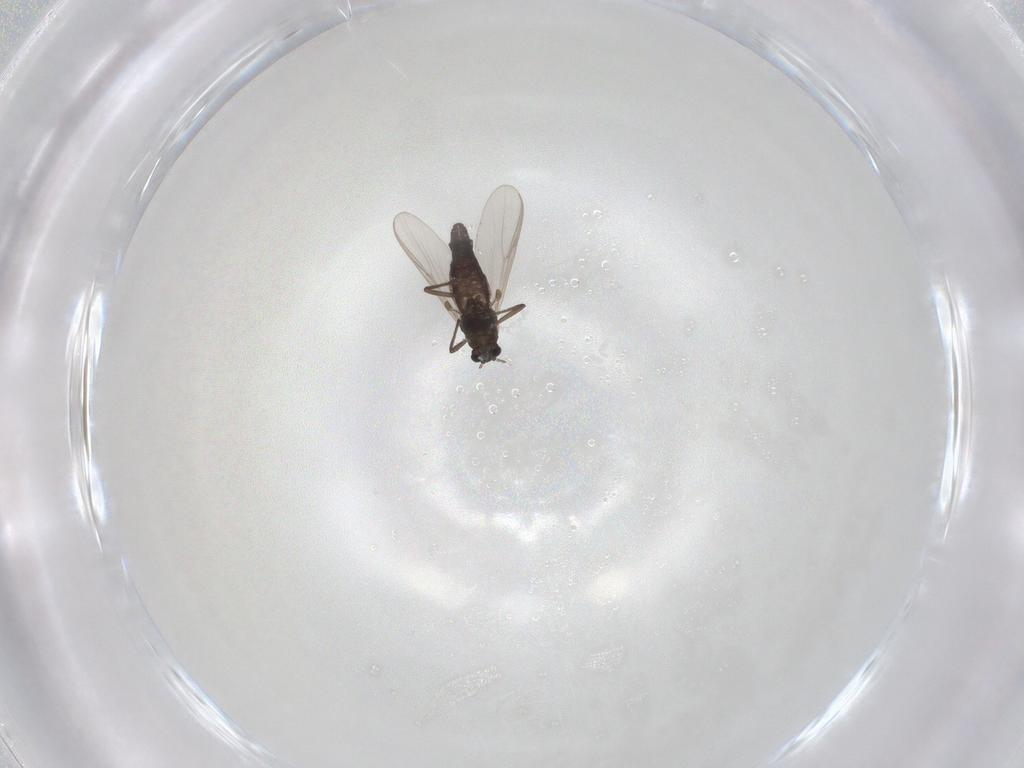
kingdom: Animalia
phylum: Arthropoda
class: Insecta
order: Diptera
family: Chironomidae
